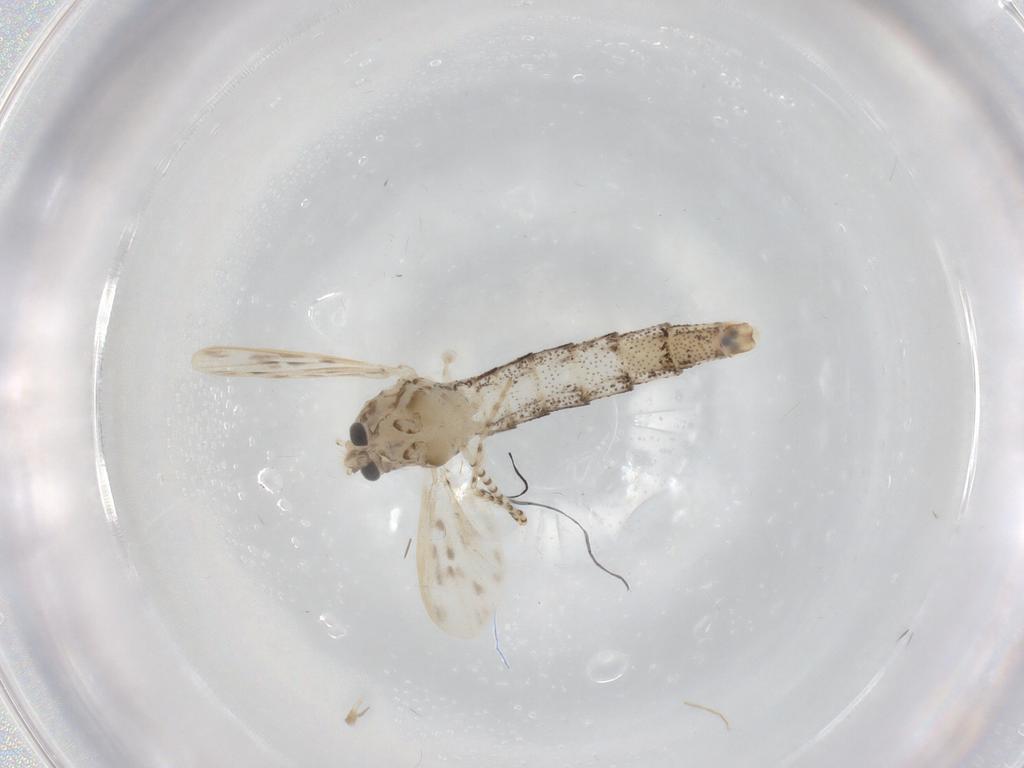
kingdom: Animalia
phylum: Arthropoda
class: Insecta
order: Diptera
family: Chaoboridae
